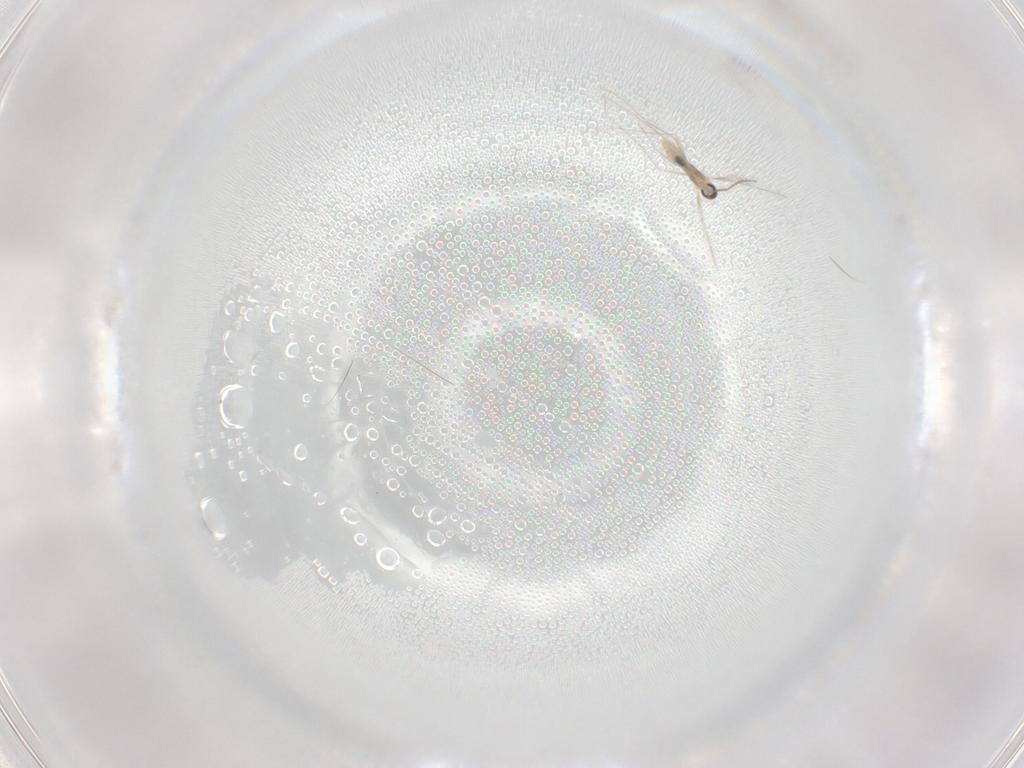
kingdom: Animalia
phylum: Arthropoda
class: Insecta
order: Diptera
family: Cecidomyiidae
